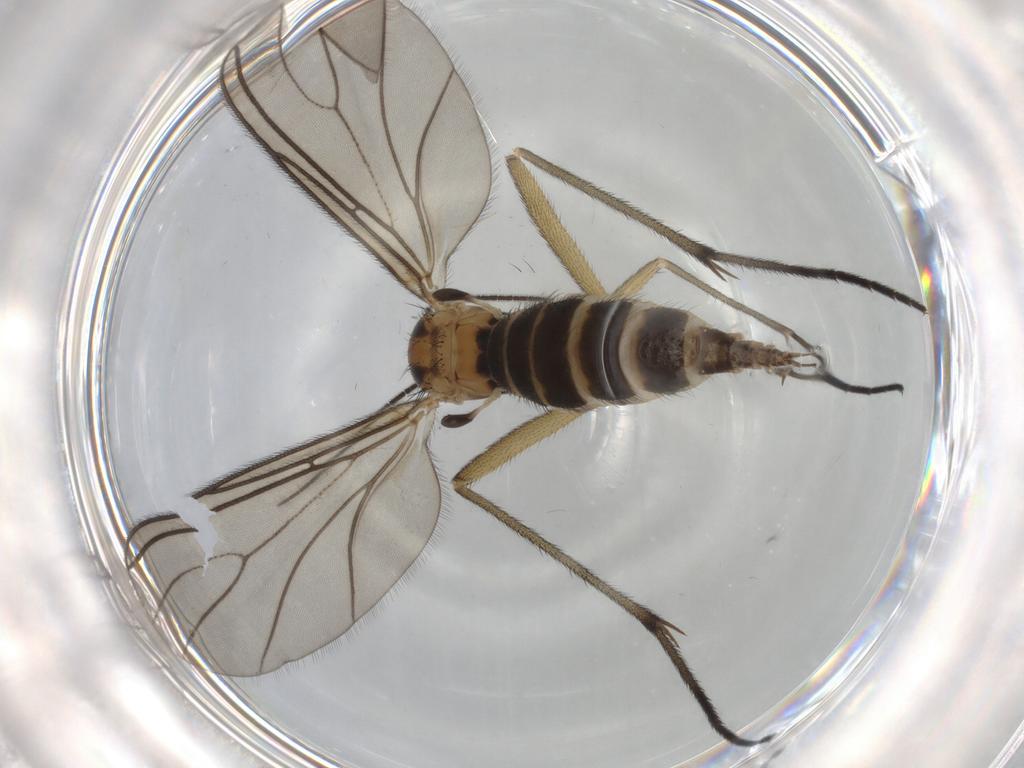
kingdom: Animalia
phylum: Arthropoda
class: Insecta
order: Diptera
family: Sciaridae
